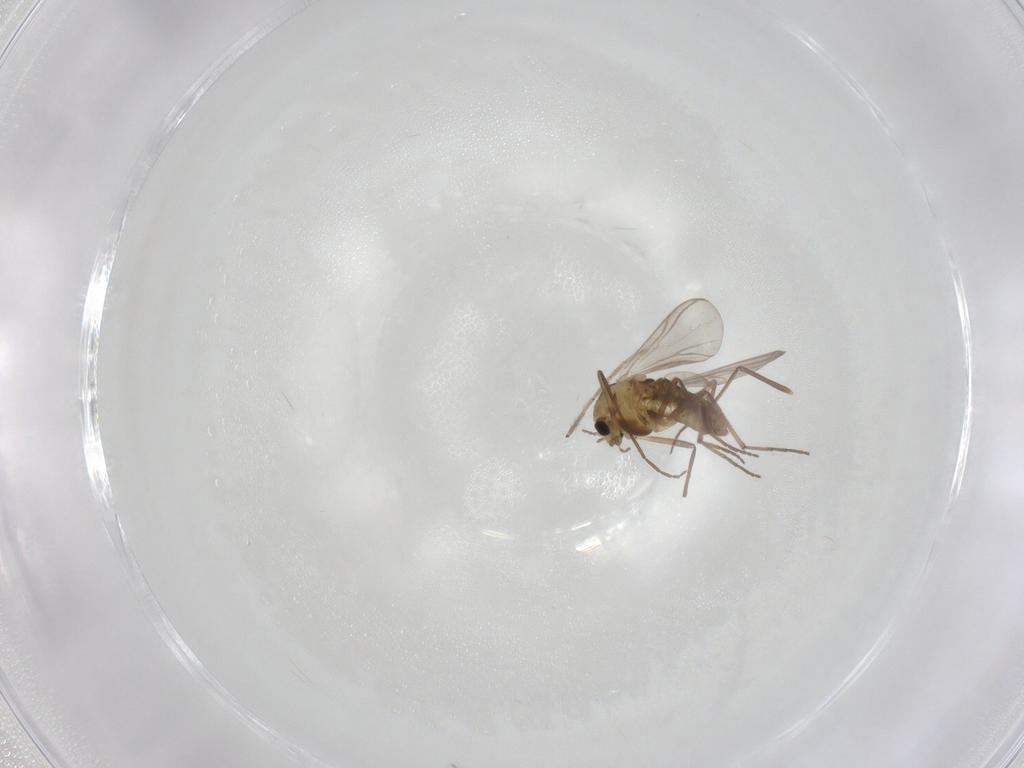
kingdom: Animalia
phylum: Arthropoda
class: Insecta
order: Diptera
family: Chironomidae
